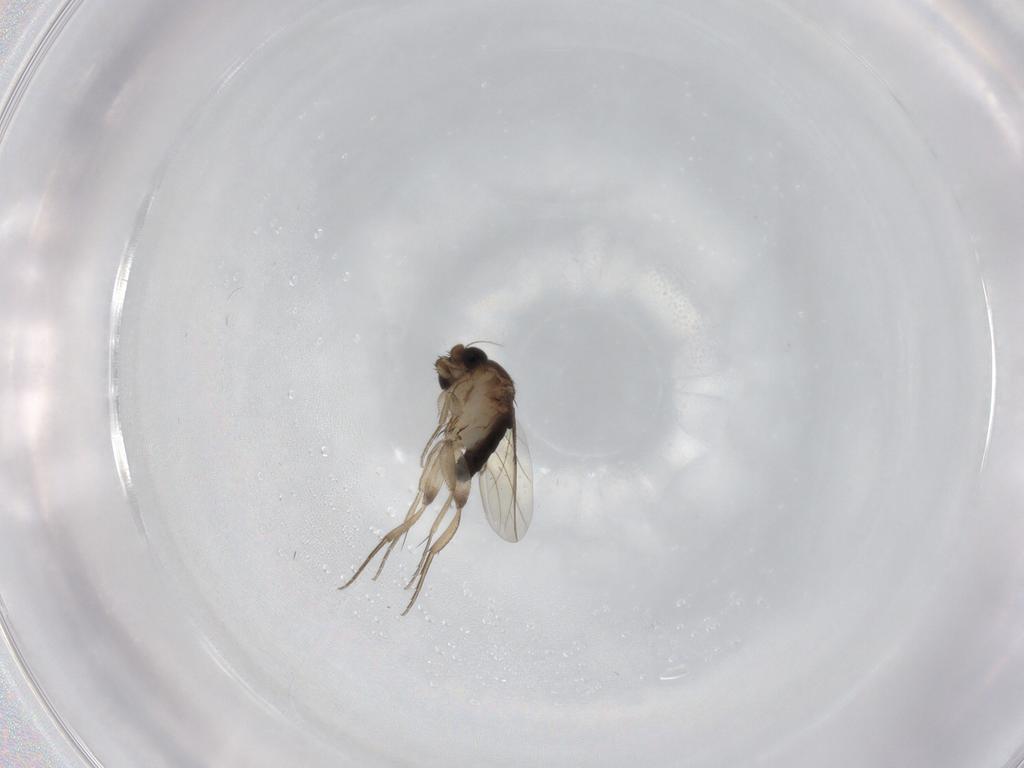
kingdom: Animalia
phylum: Arthropoda
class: Insecta
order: Diptera
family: Phoridae
